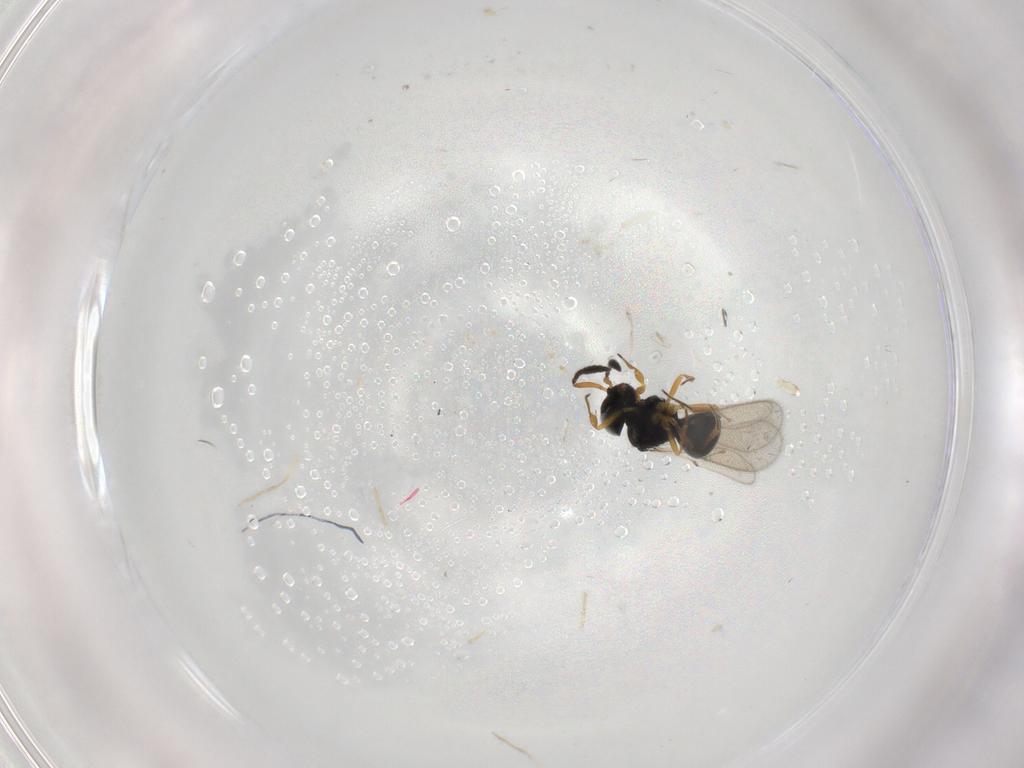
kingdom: Animalia
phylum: Arthropoda
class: Insecta
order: Hymenoptera
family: Scelionidae
